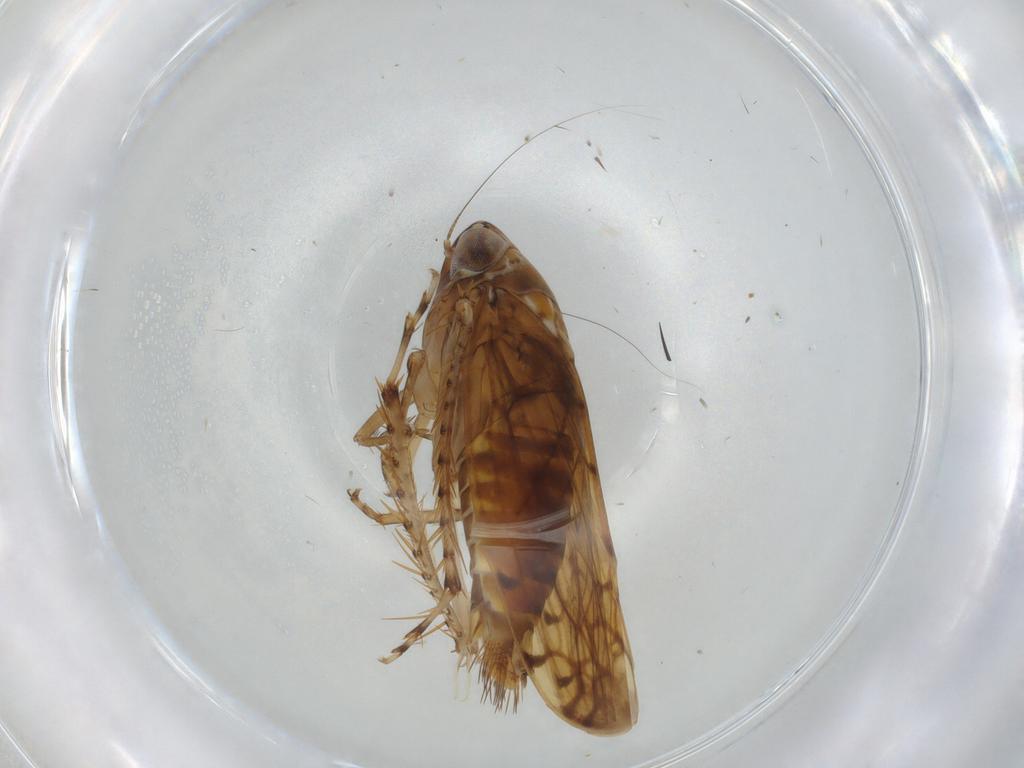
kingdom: Animalia
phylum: Arthropoda
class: Insecta
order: Hemiptera
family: Cicadellidae
